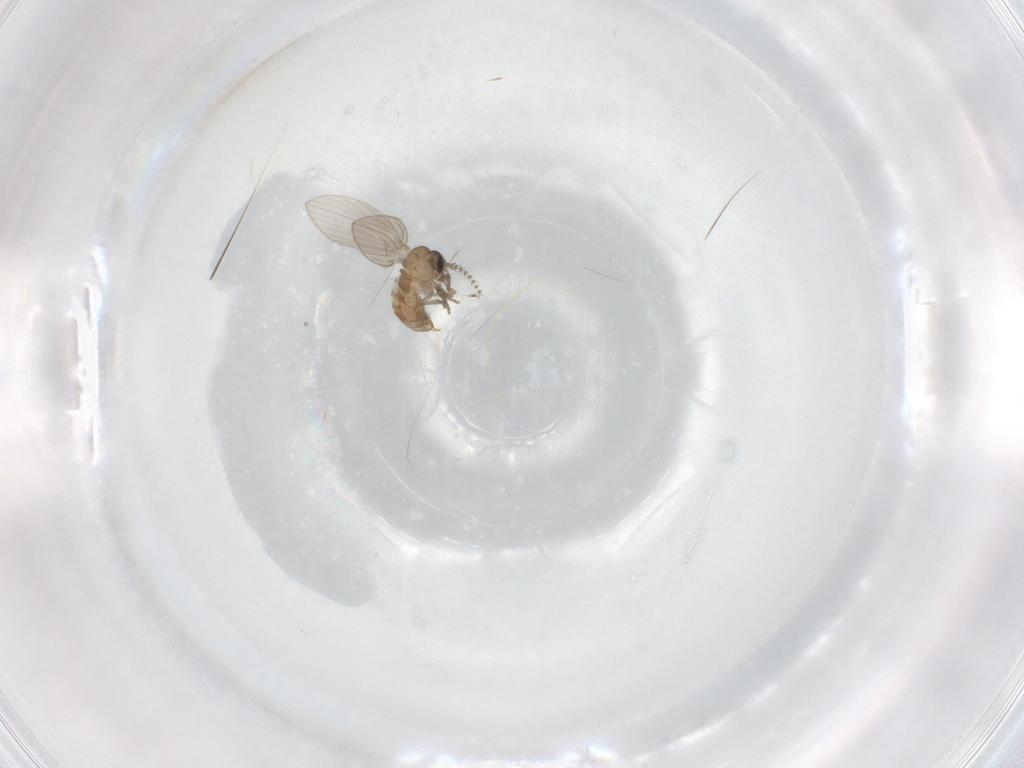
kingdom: Animalia
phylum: Arthropoda
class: Insecta
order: Diptera
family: Psychodidae
